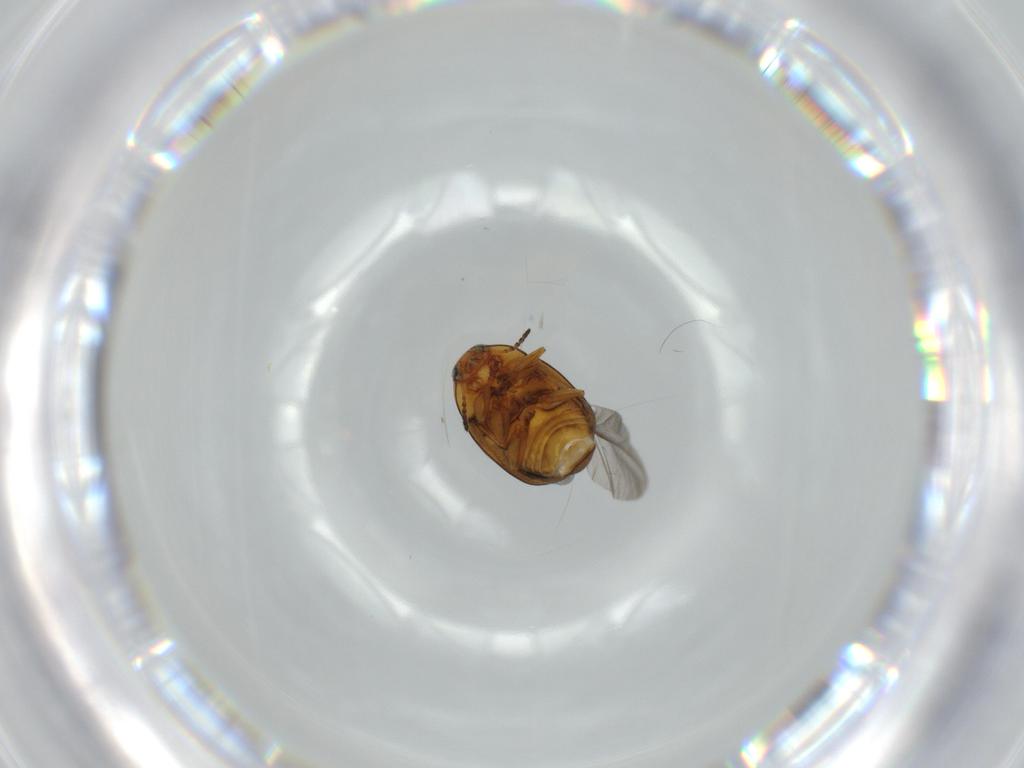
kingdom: Animalia
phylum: Arthropoda
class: Insecta
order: Coleoptera
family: Chrysomelidae
